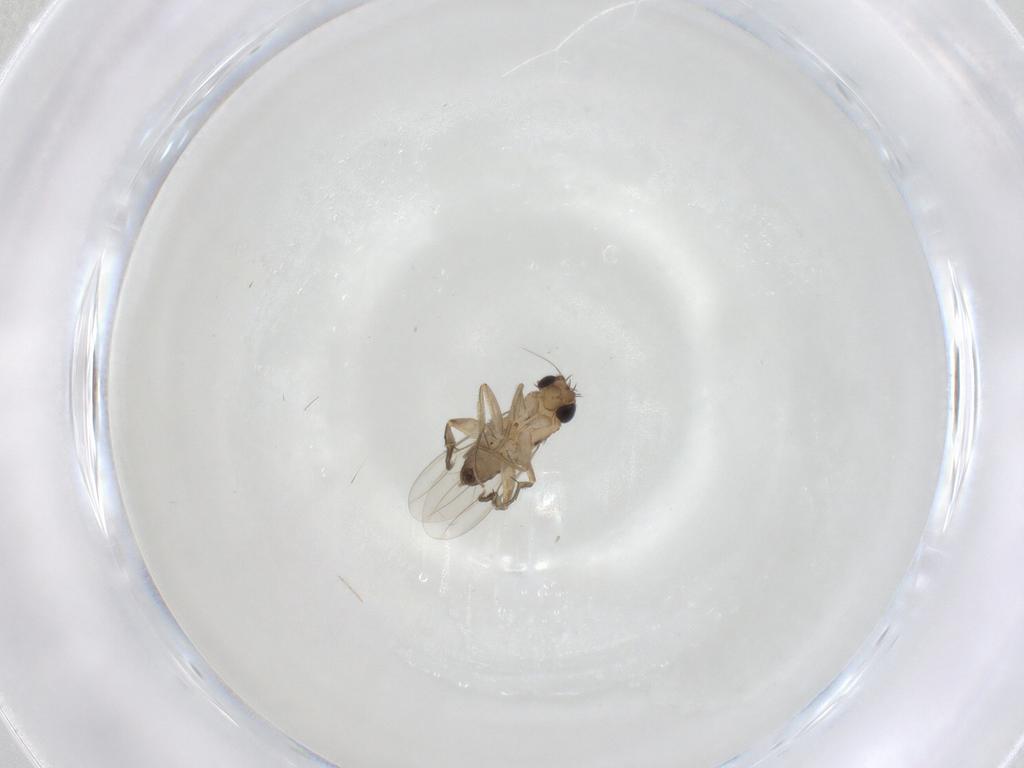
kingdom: Animalia
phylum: Arthropoda
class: Insecta
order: Diptera
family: Phoridae
